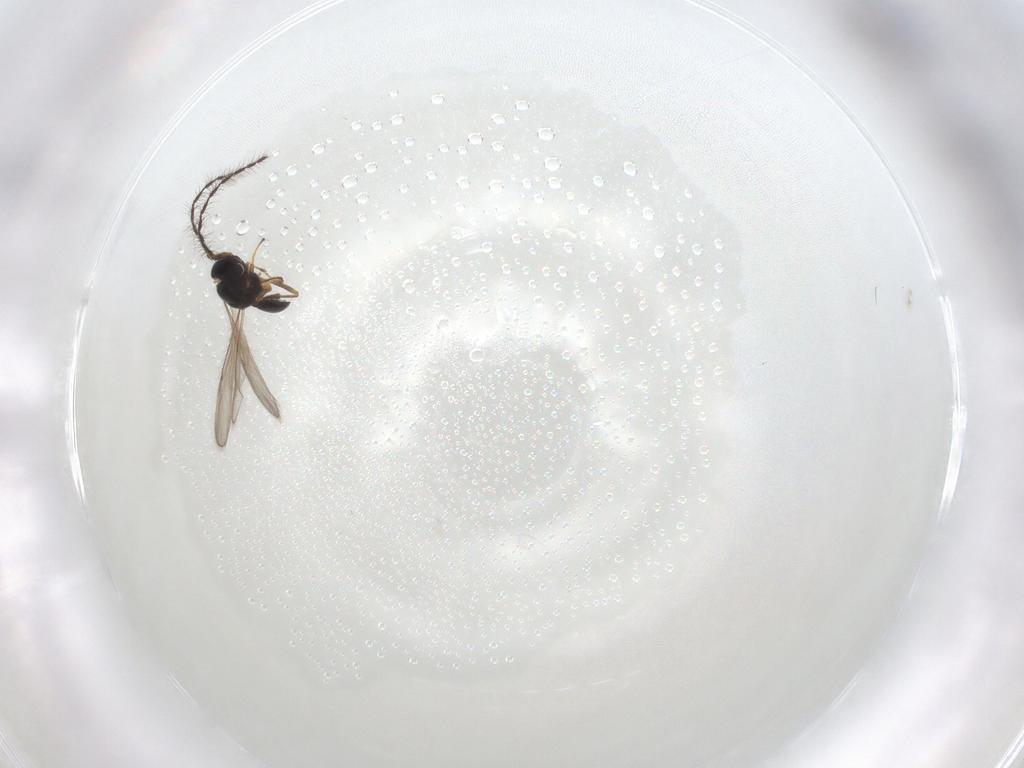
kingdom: Animalia
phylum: Arthropoda
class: Insecta
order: Hymenoptera
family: Scelionidae
